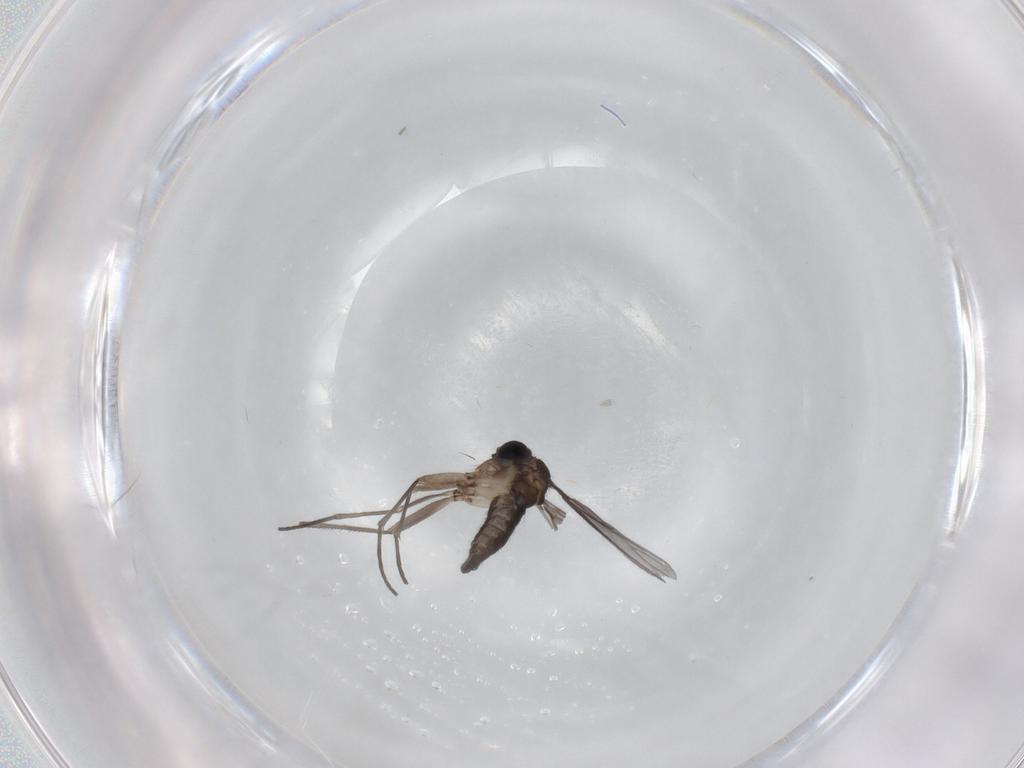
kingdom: Animalia
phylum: Arthropoda
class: Insecta
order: Diptera
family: Sciaridae
